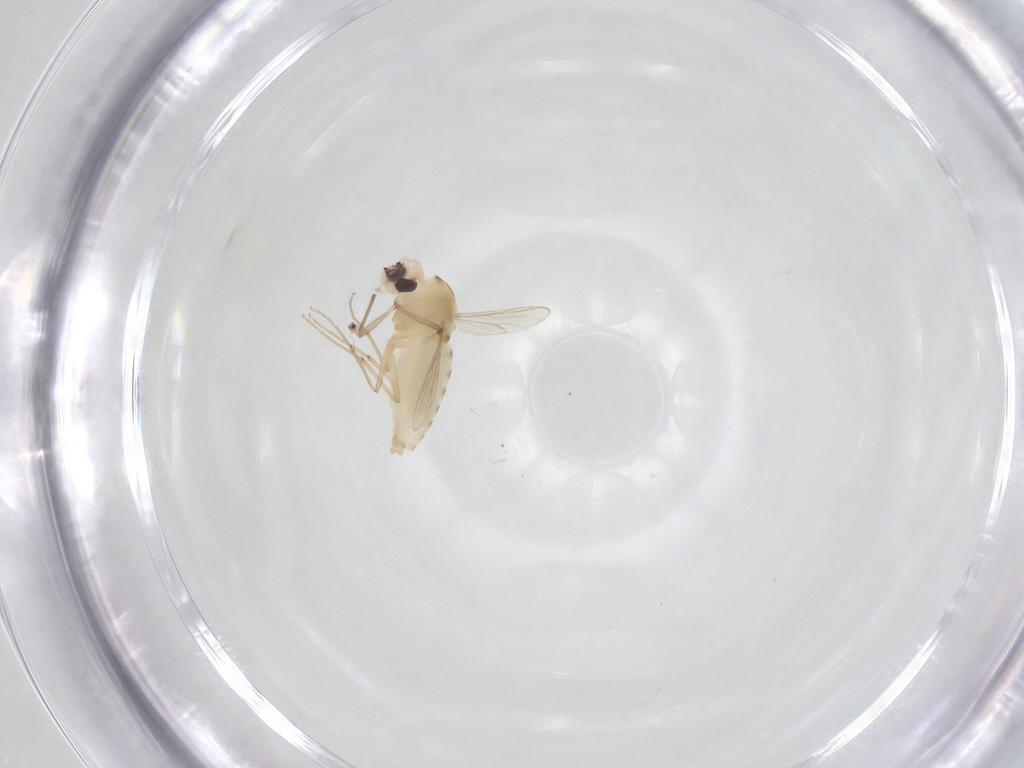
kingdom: Animalia
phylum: Arthropoda
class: Insecta
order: Diptera
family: Chironomidae
